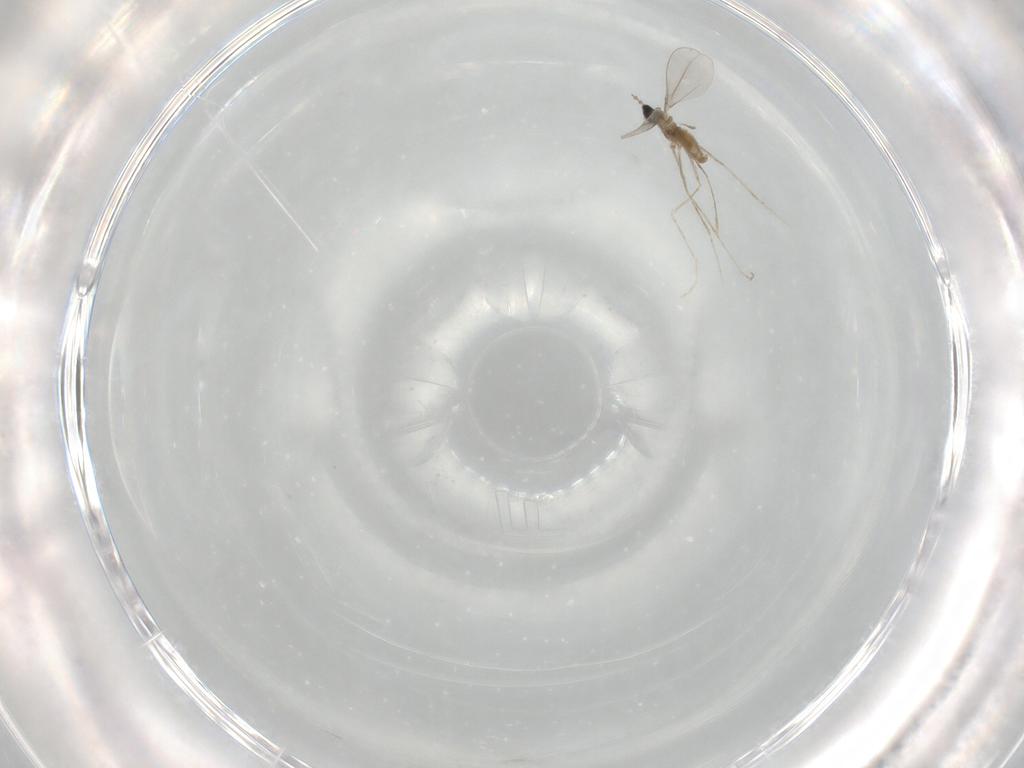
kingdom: Animalia
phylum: Arthropoda
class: Insecta
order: Diptera
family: Cecidomyiidae
